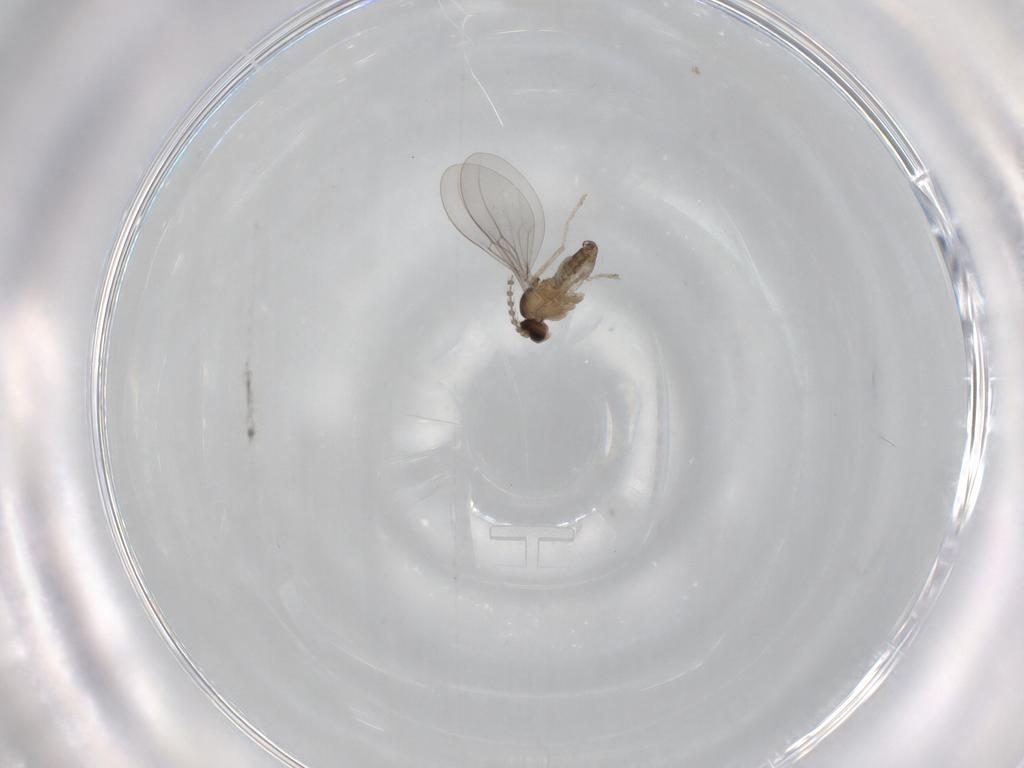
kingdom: Animalia
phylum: Arthropoda
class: Insecta
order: Diptera
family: Cecidomyiidae
